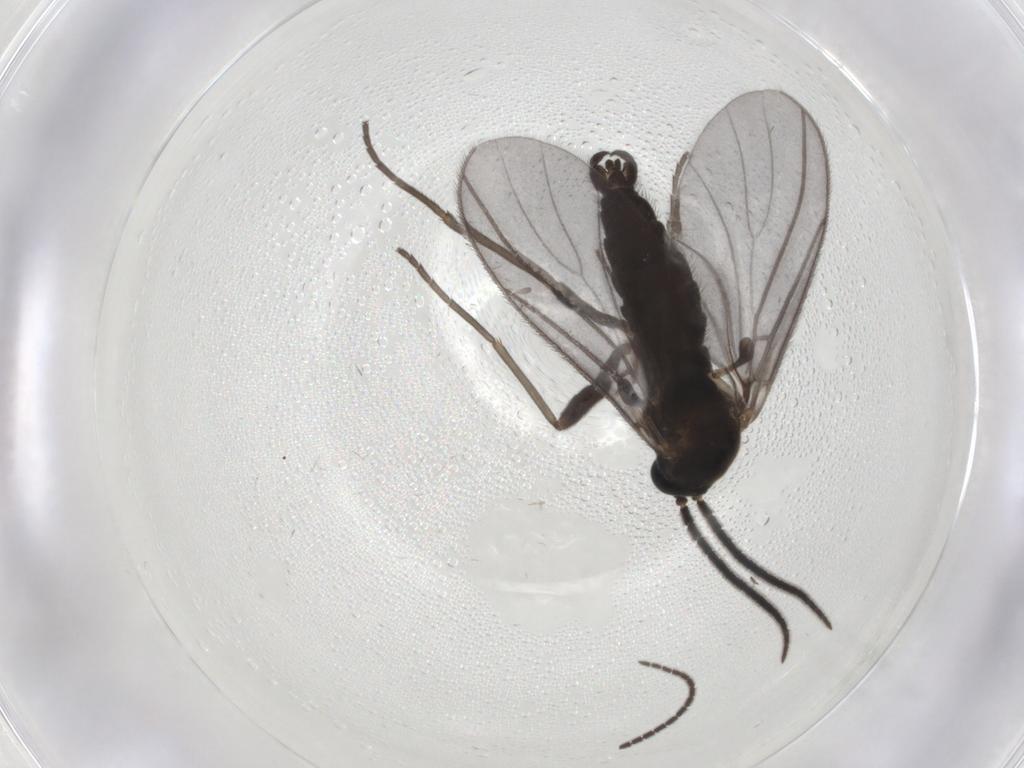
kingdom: Animalia
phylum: Arthropoda
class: Insecta
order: Diptera
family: Sciaridae
